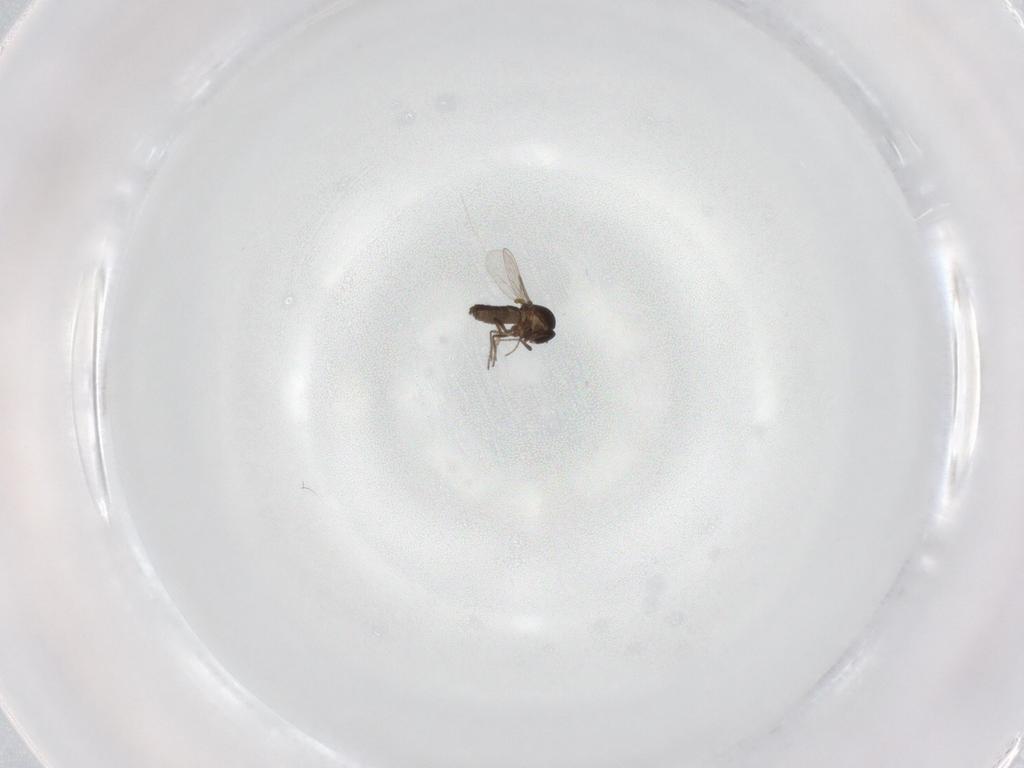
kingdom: Animalia
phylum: Arthropoda
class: Insecta
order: Diptera
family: Ceratopogonidae
